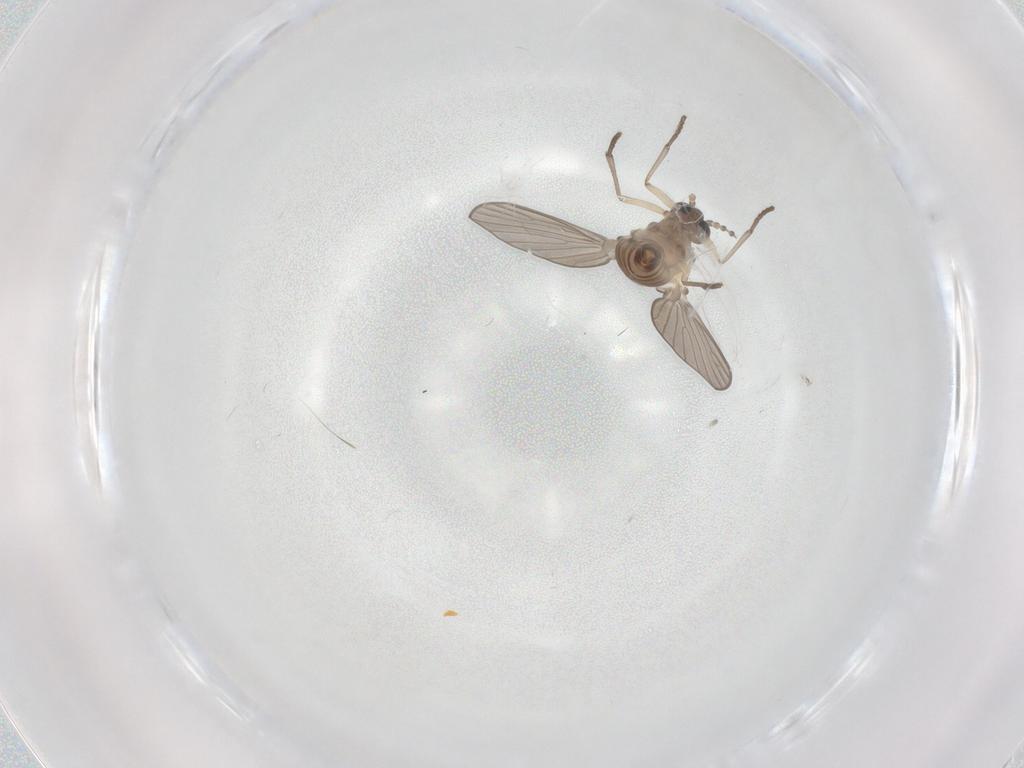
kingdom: Animalia
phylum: Arthropoda
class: Insecta
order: Diptera
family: Psychodidae
